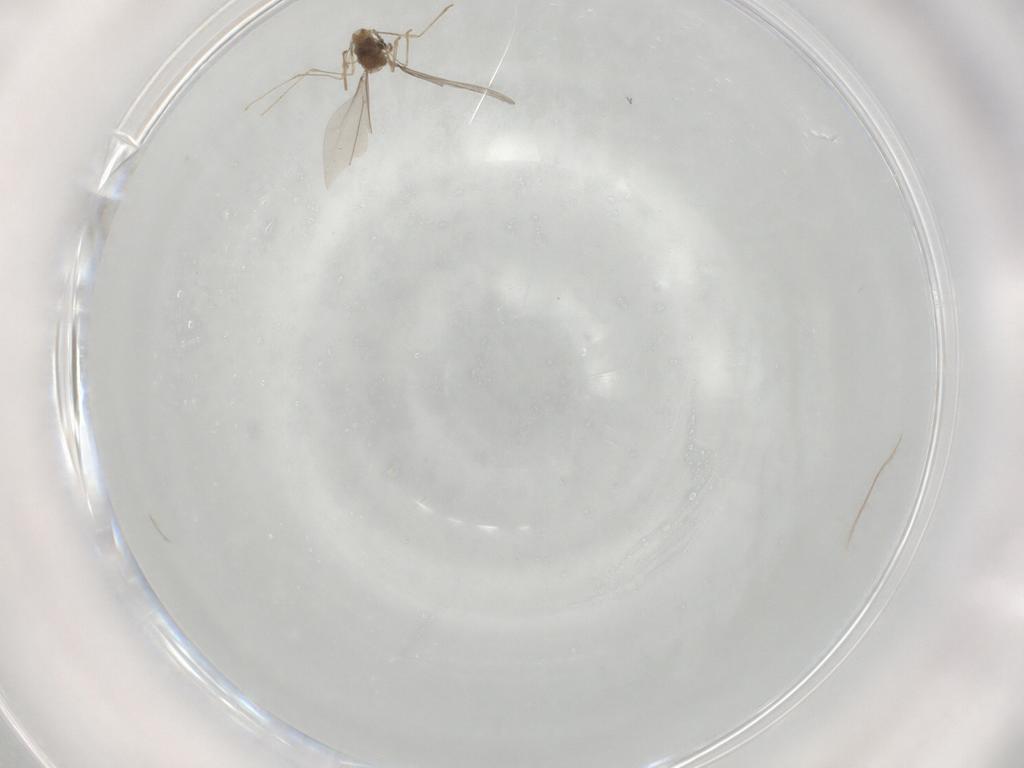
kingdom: Animalia
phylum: Arthropoda
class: Insecta
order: Diptera
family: Cecidomyiidae
